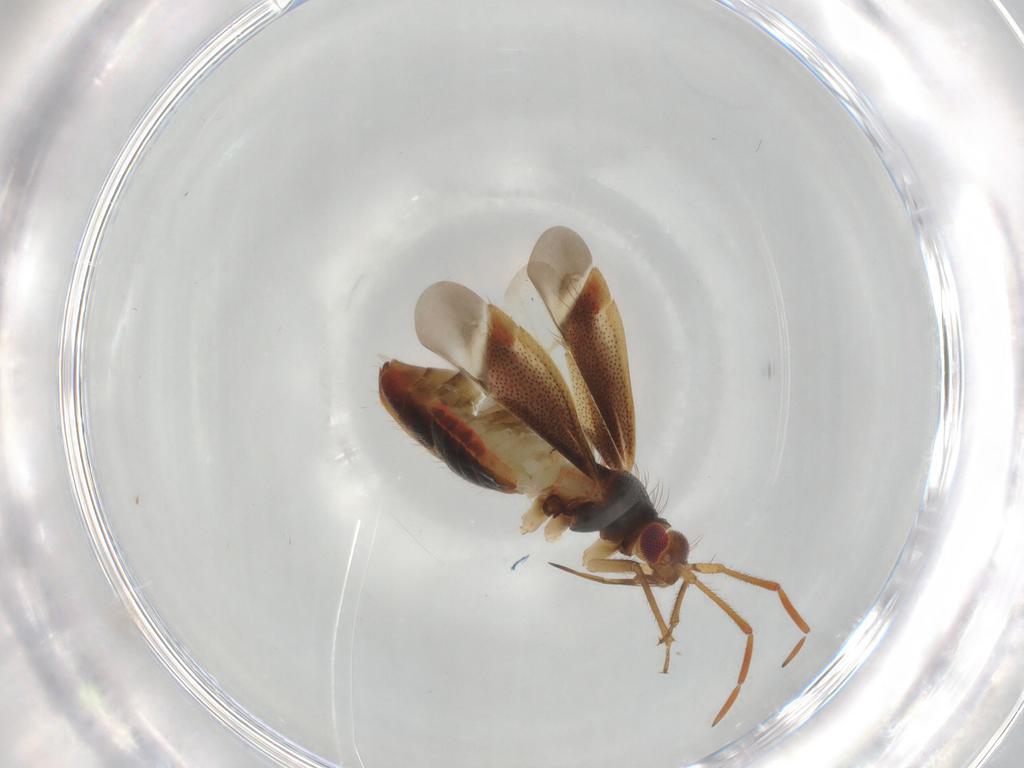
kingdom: Animalia
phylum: Arthropoda
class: Insecta
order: Hemiptera
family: Miridae
